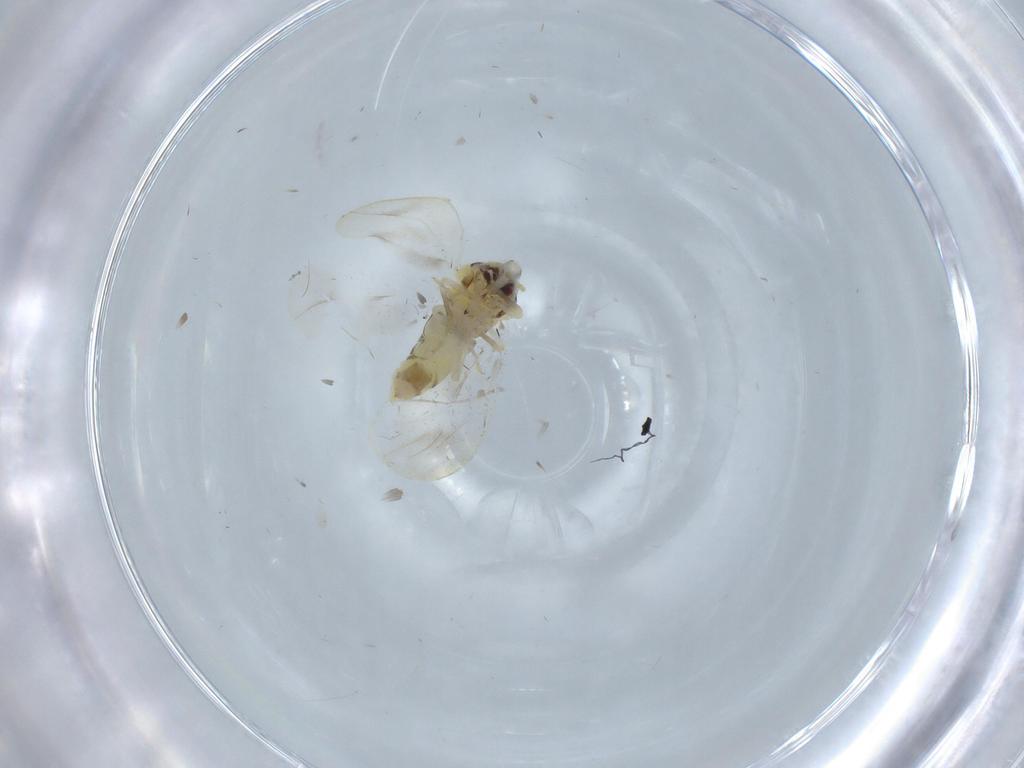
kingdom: Animalia
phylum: Arthropoda
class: Insecta
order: Hemiptera
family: Aleyrodidae
